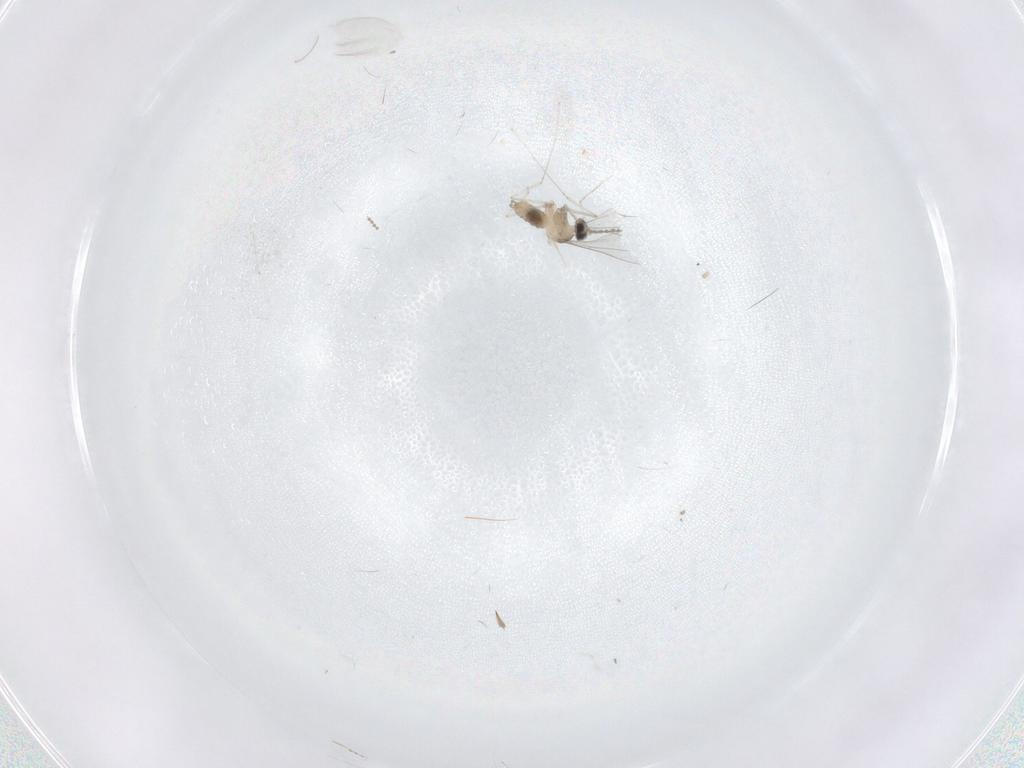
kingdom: Animalia
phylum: Arthropoda
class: Insecta
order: Diptera
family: Cecidomyiidae
